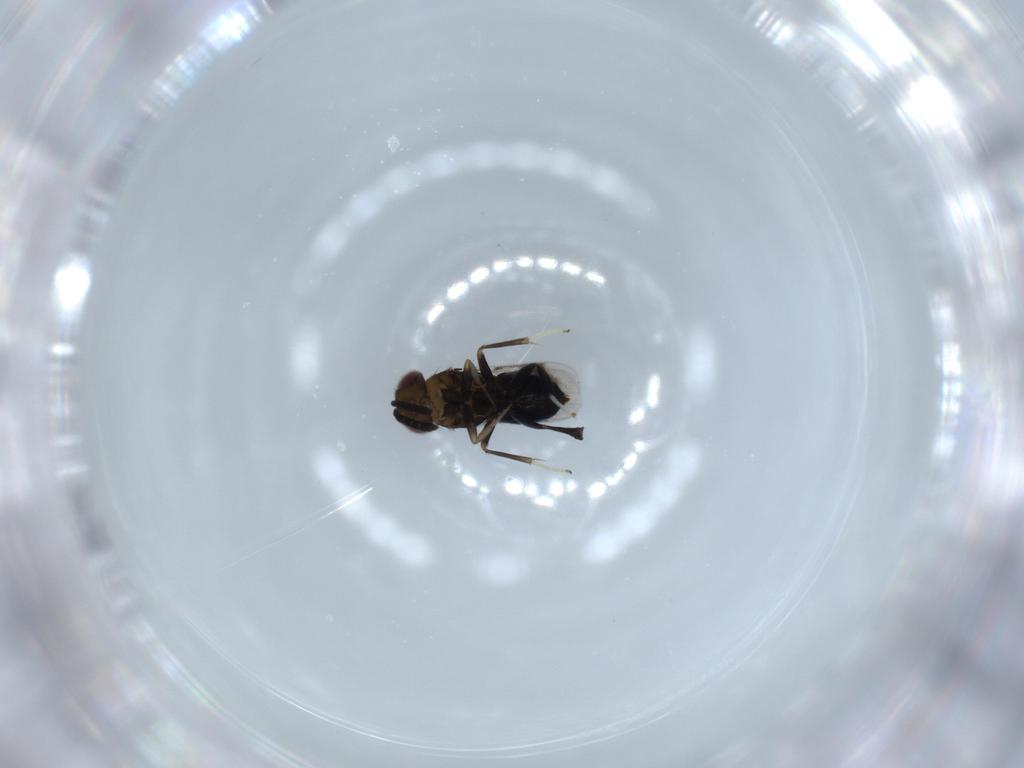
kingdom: Animalia
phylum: Arthropoda
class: Insecta
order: Hymenoptera
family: Aphelinidae
